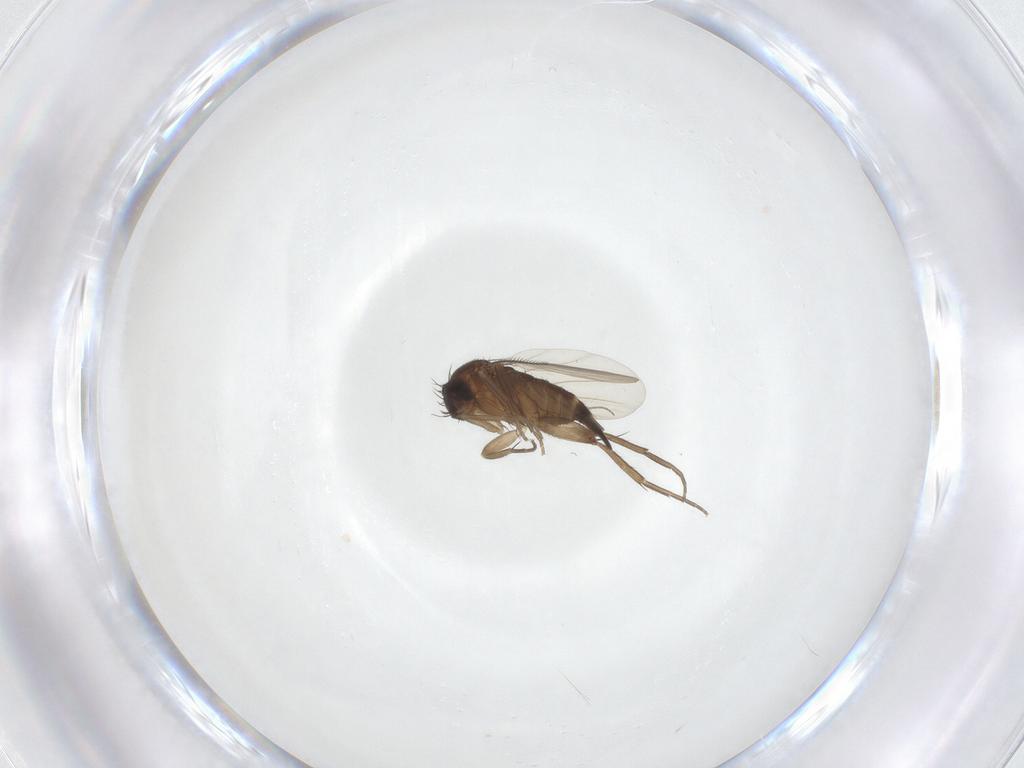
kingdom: Animalia
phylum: Arthropoda
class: Insecta
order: Diptera
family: Phoridae
